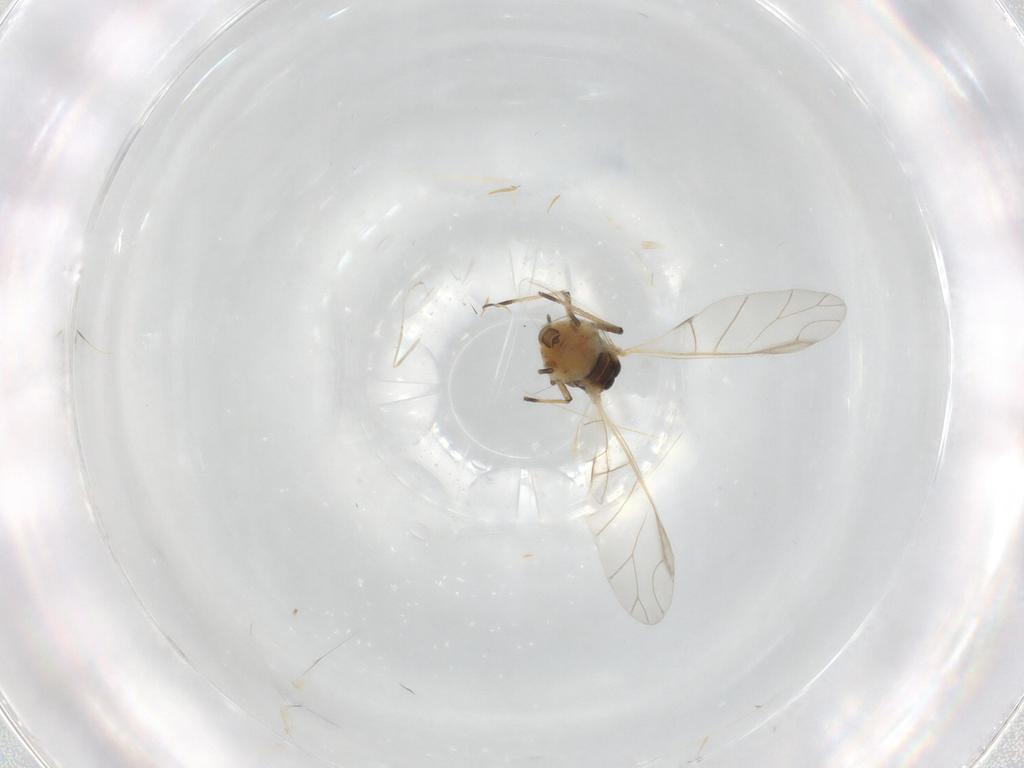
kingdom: Animalia
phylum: Arthropoda
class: Insecta
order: Hemiptera
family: Aphididae
